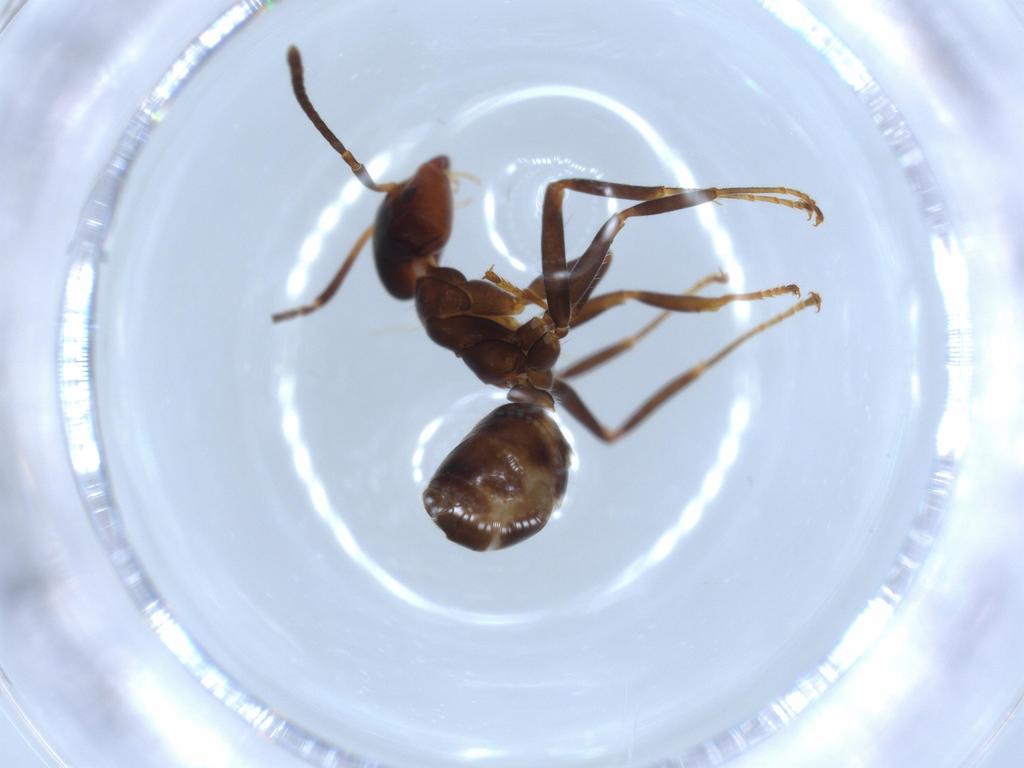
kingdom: Animalia
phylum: Arthropoda
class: Insecta
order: Hymenoptera
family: Formicidae
